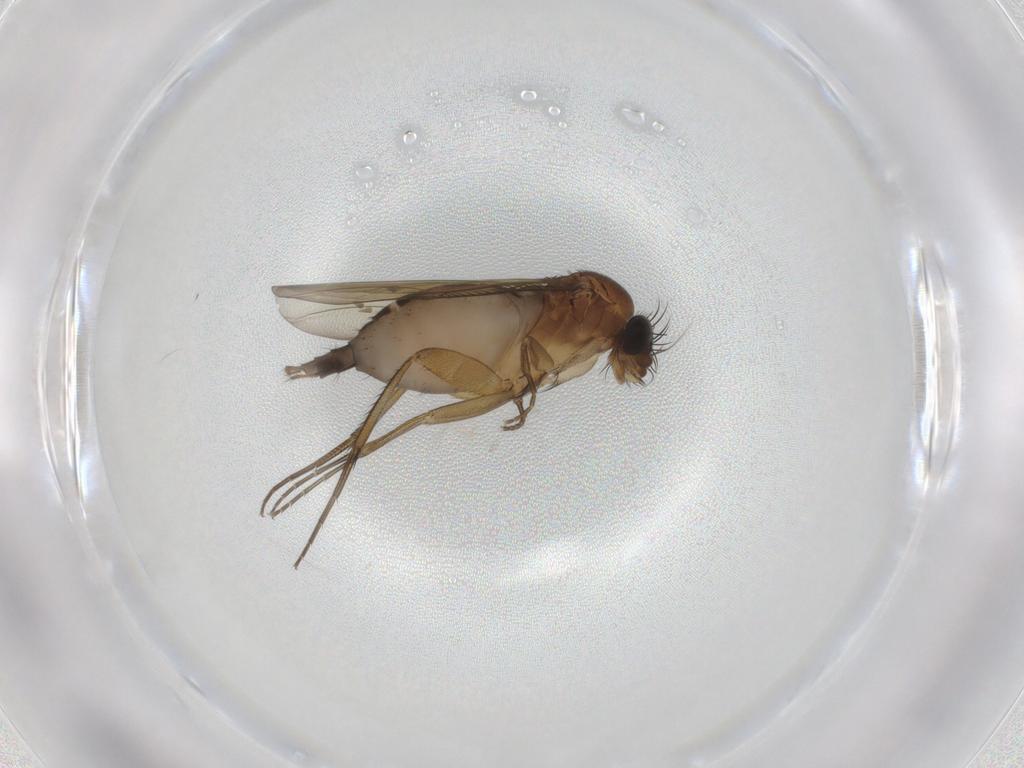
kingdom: Animalia
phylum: Arthropoda
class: Insecta
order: Diptera
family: Phoridae
